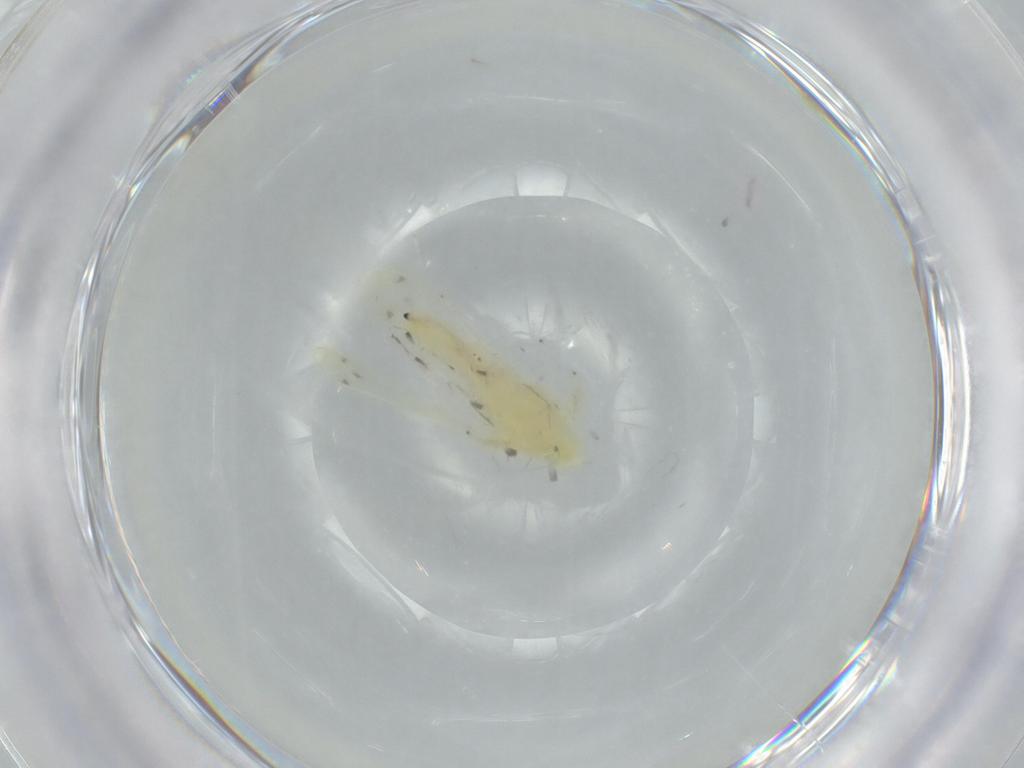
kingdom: Animalia
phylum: Arthropoda
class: Insecta
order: Hemiptera
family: Cicadellidae
